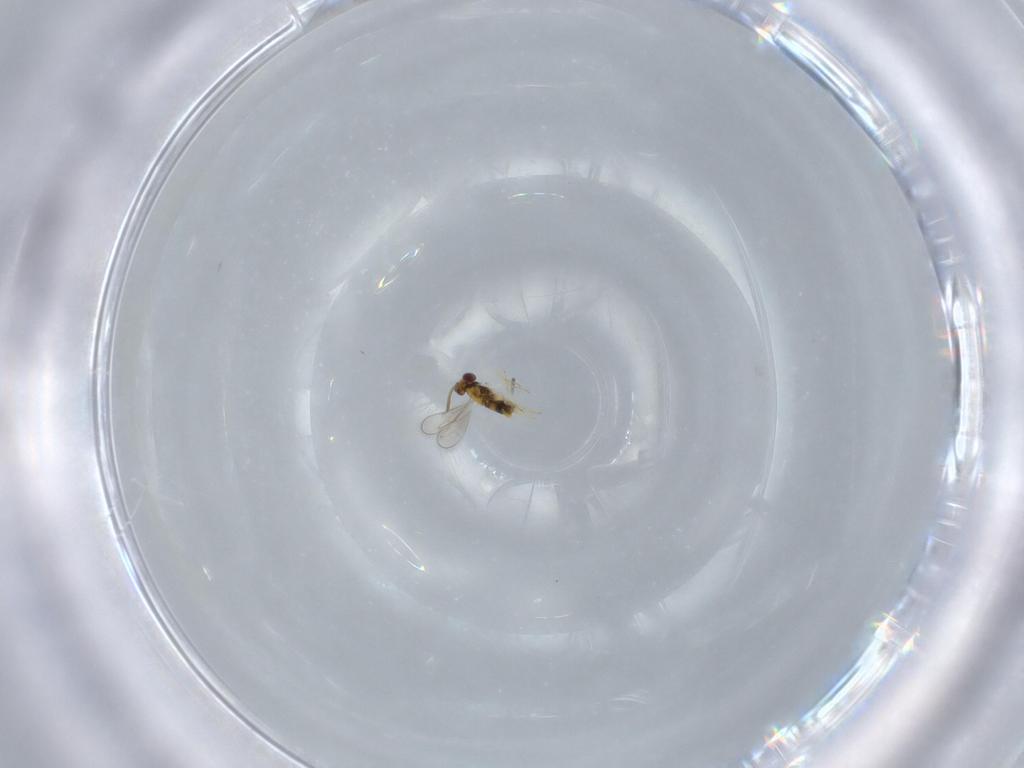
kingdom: Animalia
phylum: Arthropoda
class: Insecta
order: Hymenoptera
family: Aphelinidae
